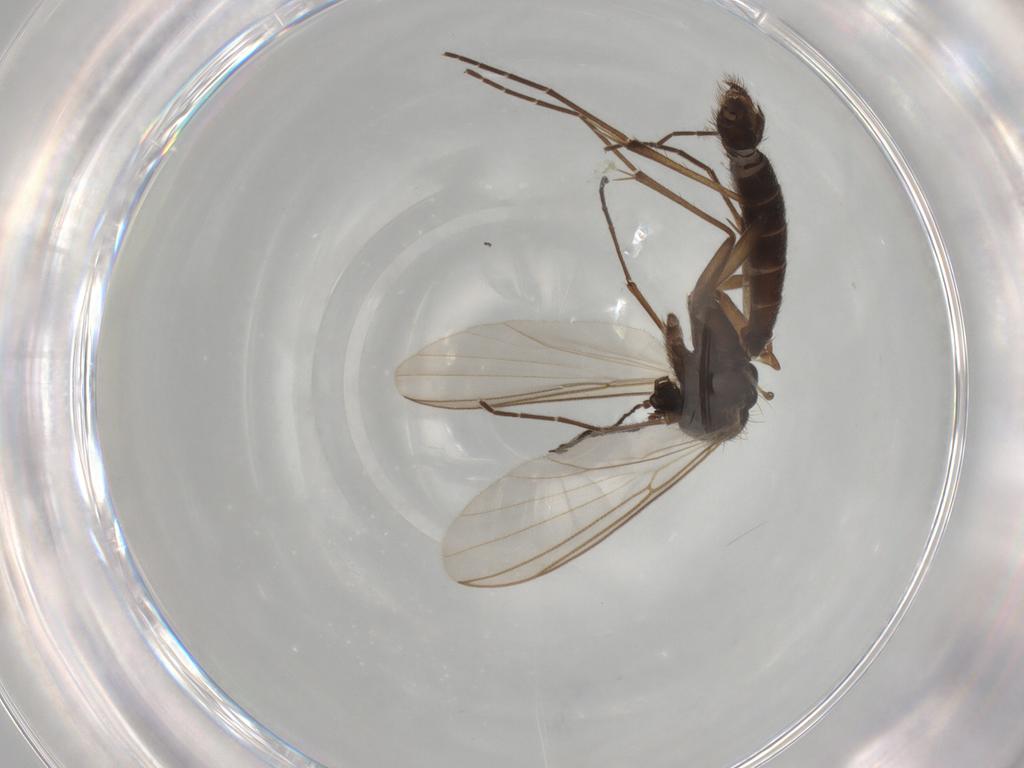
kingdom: Animalia
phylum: Arthropoda
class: Insecta
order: Diptera
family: Mycetophilidae
